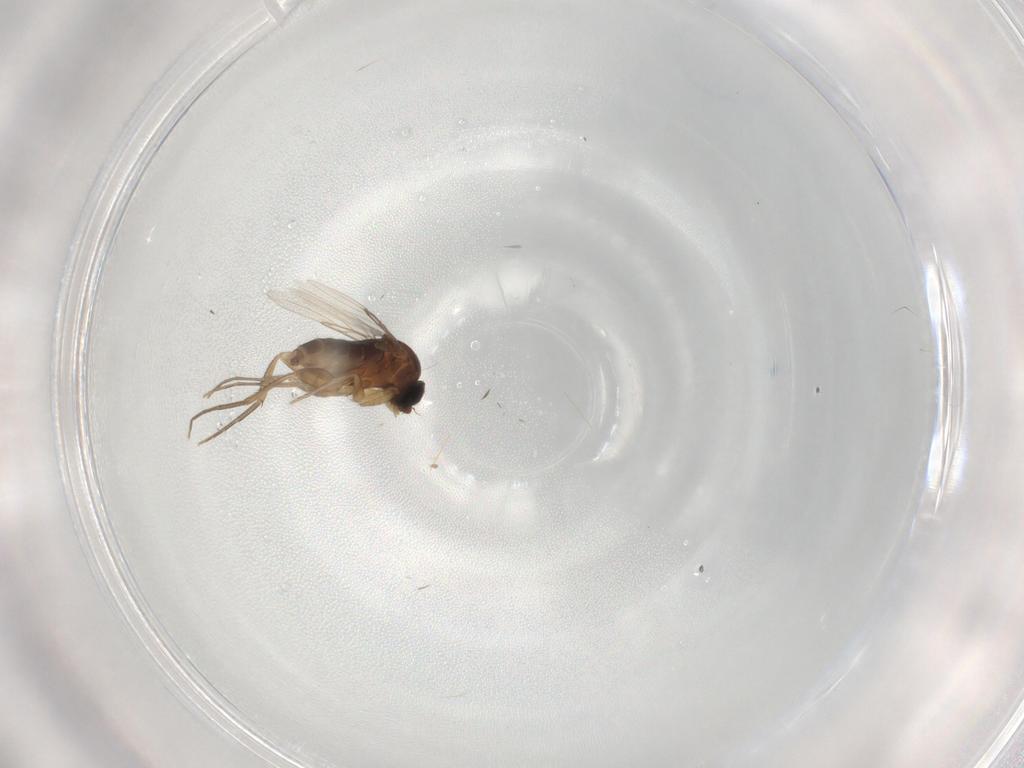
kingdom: Animalia
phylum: Arthropoda
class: Insecta
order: Diptera
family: Phoridae
